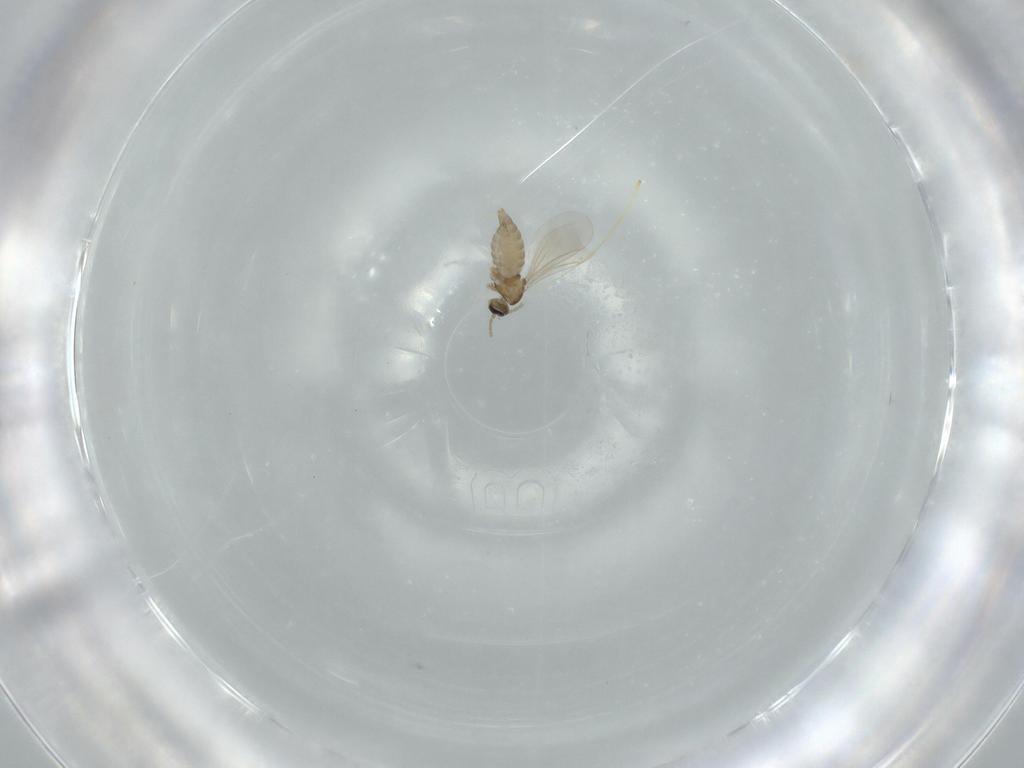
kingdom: Animalia
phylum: Arthropoda
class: Insecta
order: Diptera
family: Cecidomyiidae
